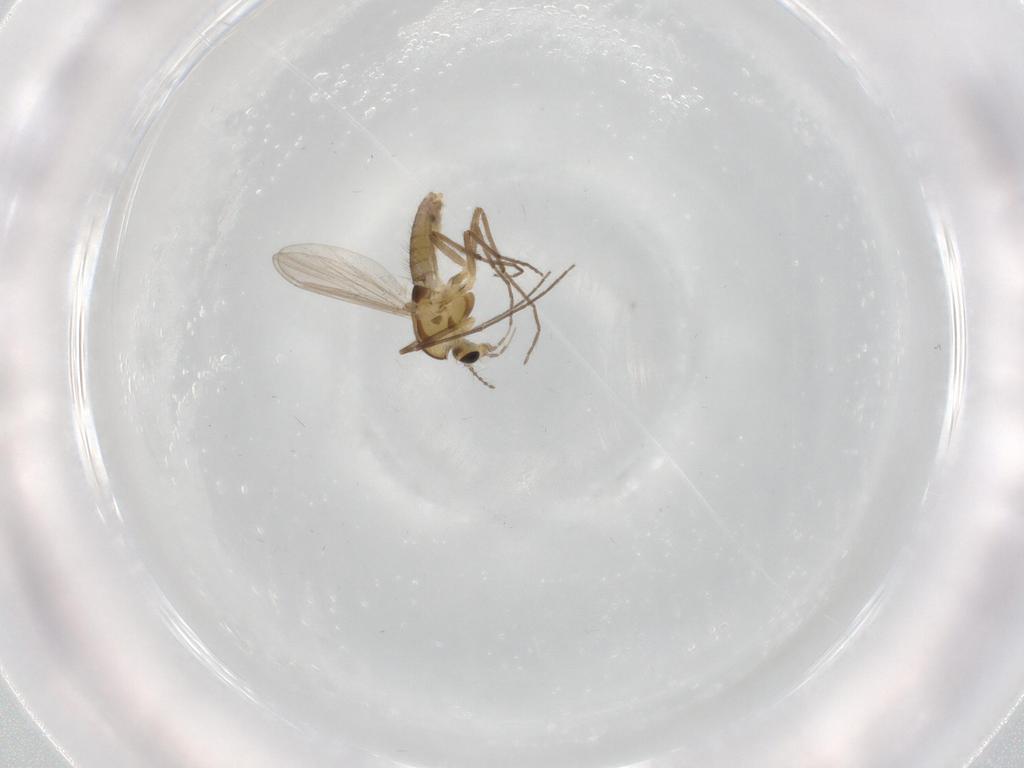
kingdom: Animalia
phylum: Arthropoda
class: Insecta
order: Diptera
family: Chironomidae
